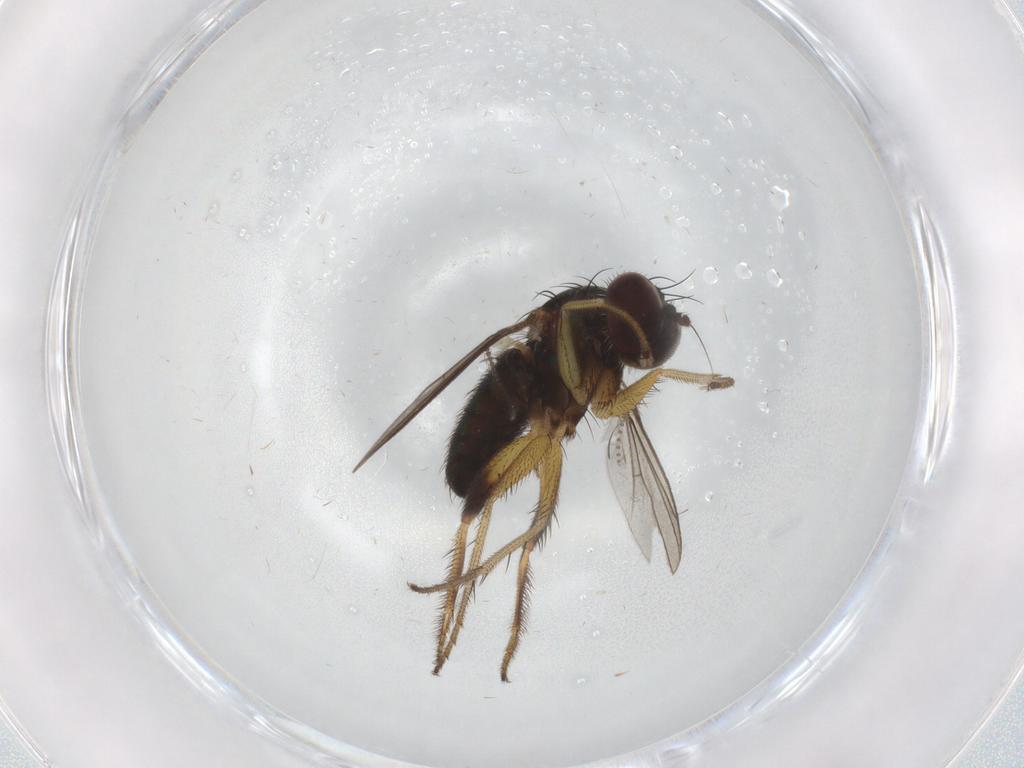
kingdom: Animalia
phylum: Arthropoda
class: Insecta
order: Diptera
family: Dolichopodidae
